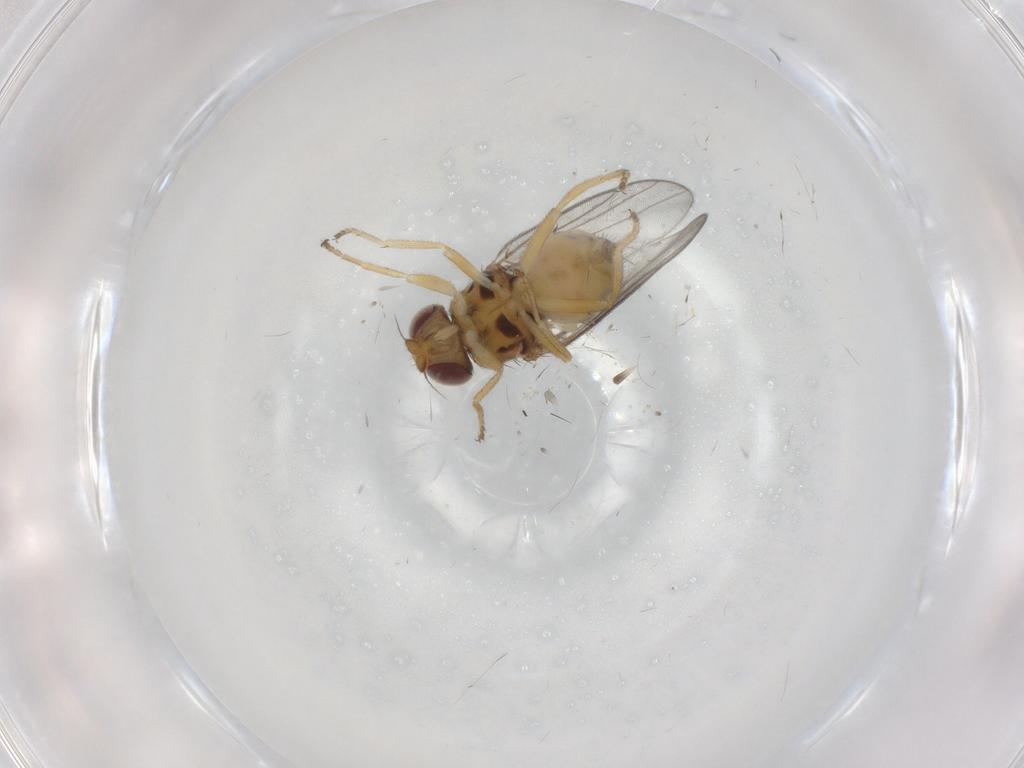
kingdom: Animalia
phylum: Arthropoda
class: Insecta
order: Diptera
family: Chloropidae
